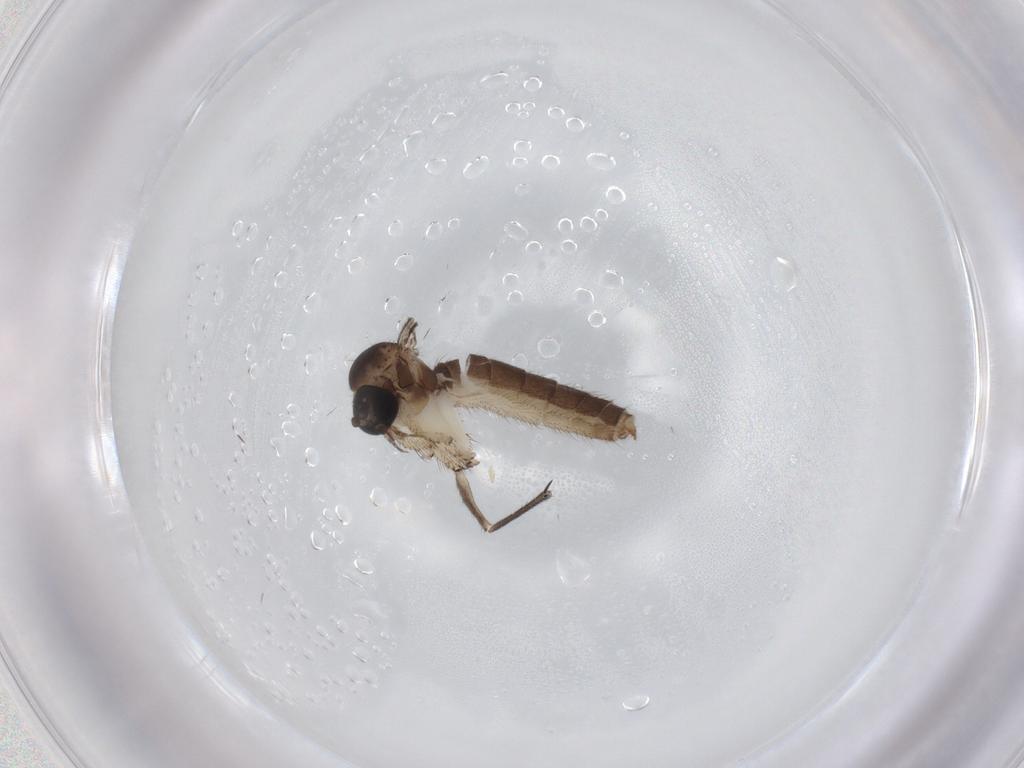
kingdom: Animalia
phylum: Arthropoda
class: Insecta
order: Diptera
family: Mycetophilidae
